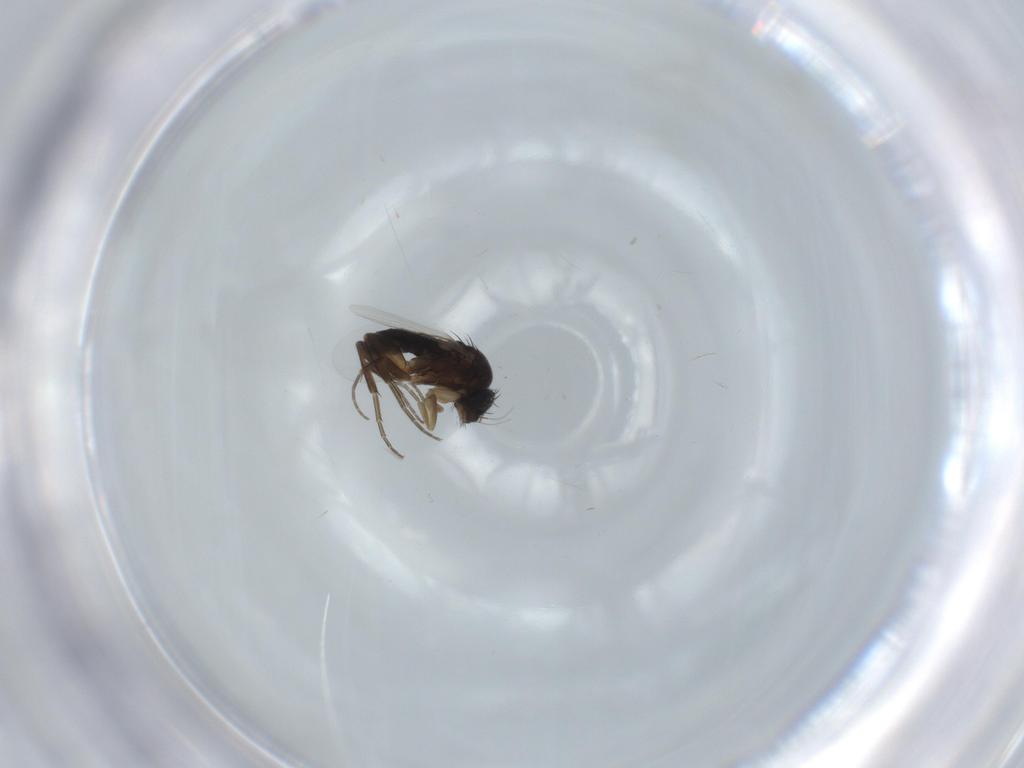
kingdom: Animalia
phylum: Arthropoda
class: Insecta
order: Diptera
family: Phoridae
